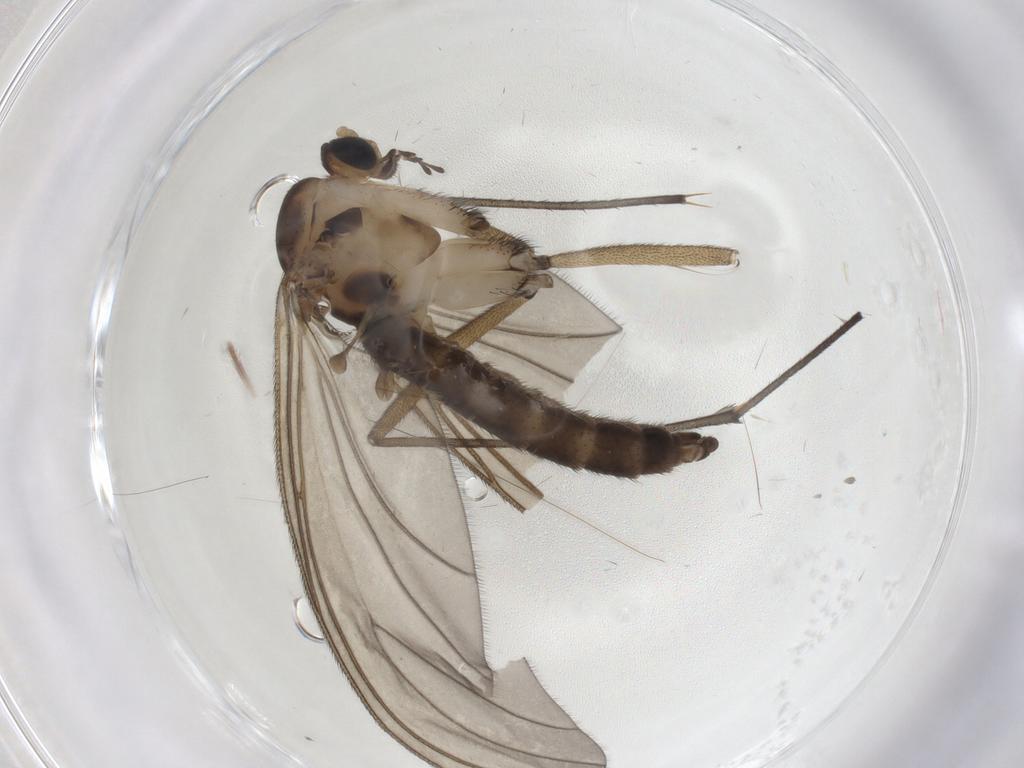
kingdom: Animalia
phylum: Arthropoda
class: Insecta
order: Diptera
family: Sciaridae
